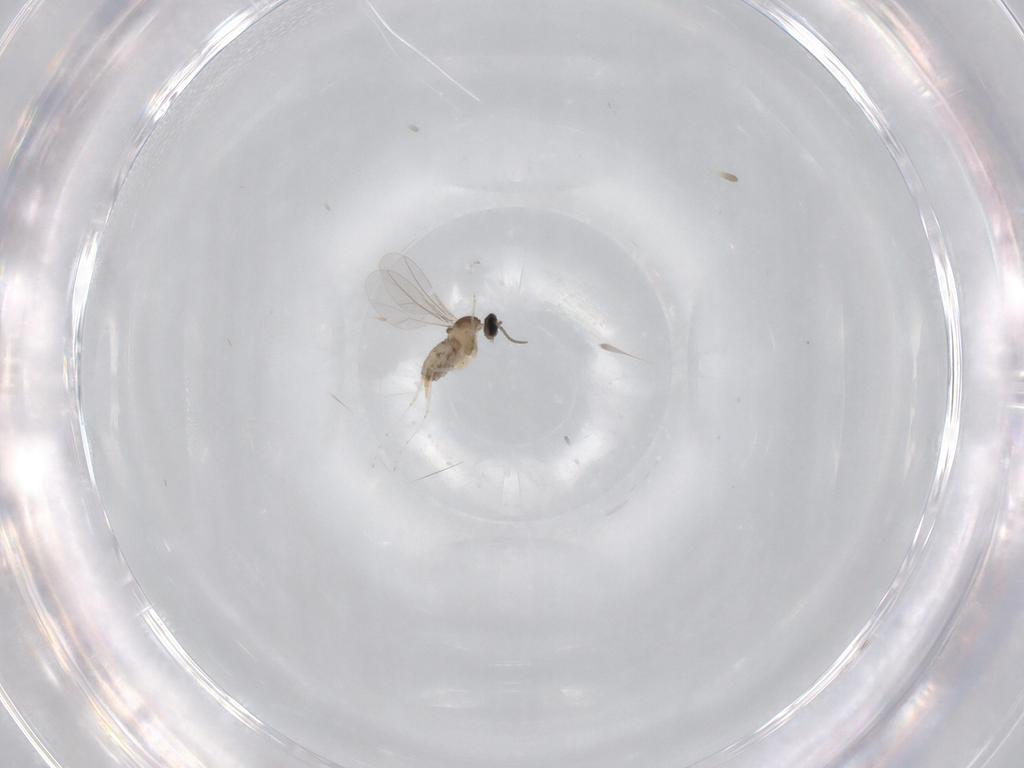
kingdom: Animalia
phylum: Arthropoda
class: Insecta
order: Diptera
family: Cecidomyiidae
